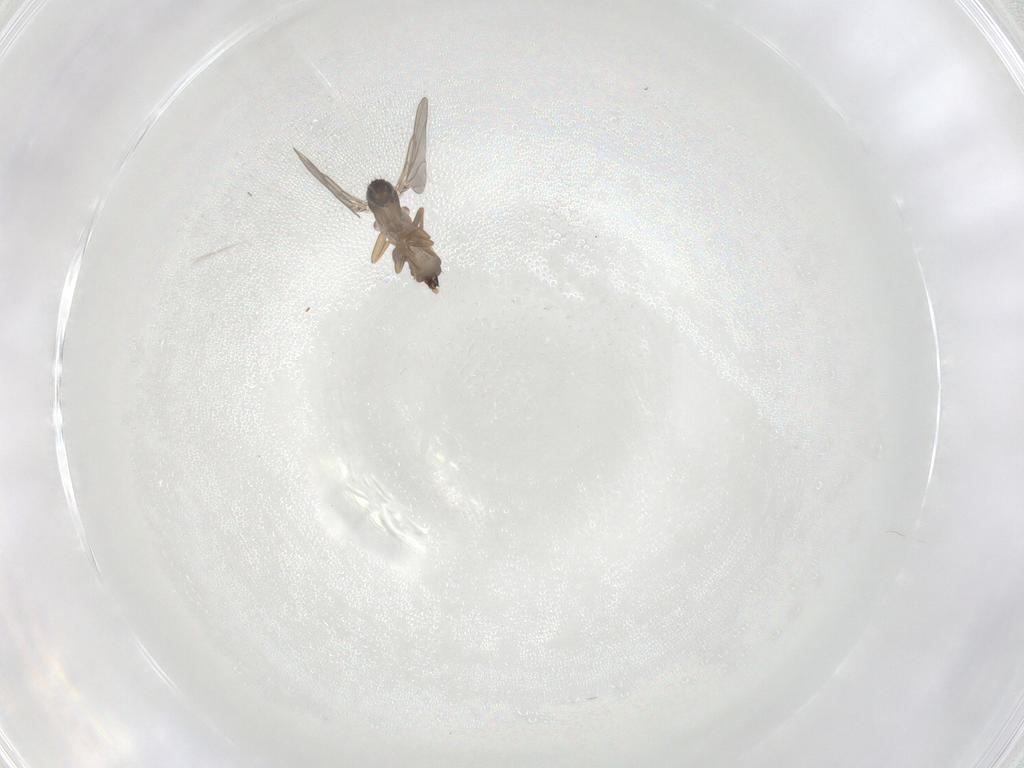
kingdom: Animalia
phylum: Arthropoda
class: Insecta
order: Diptera
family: Phoridae
